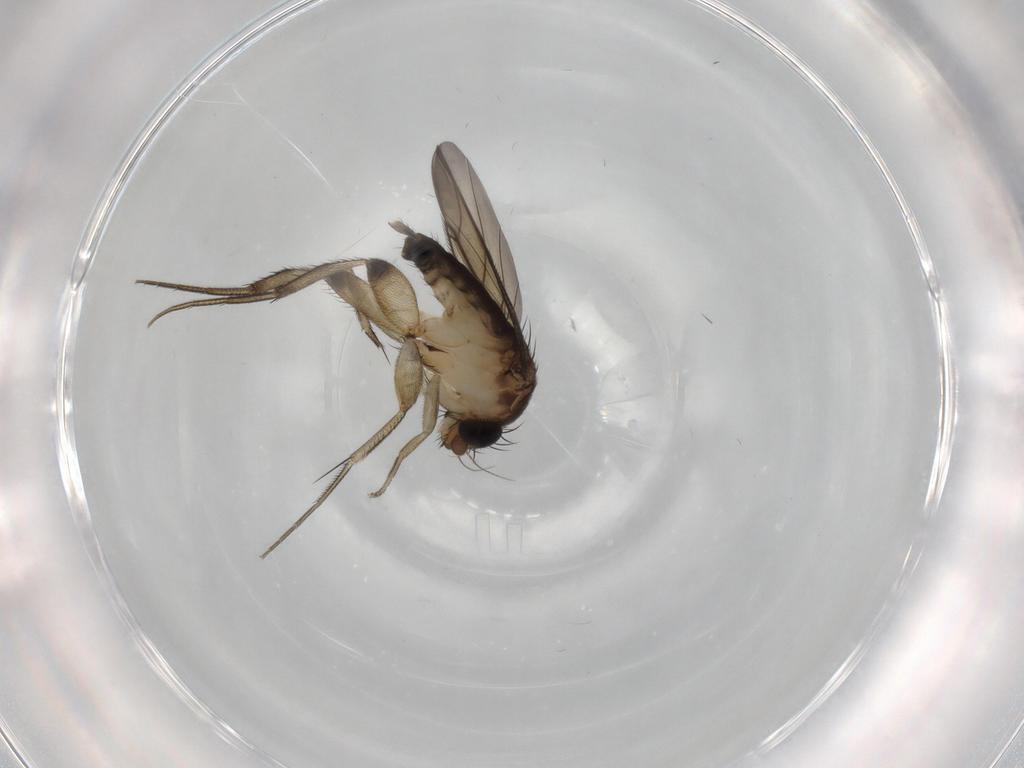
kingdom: Animalia
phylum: Arthropoda
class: Insecta
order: Diptera
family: Phoridae
